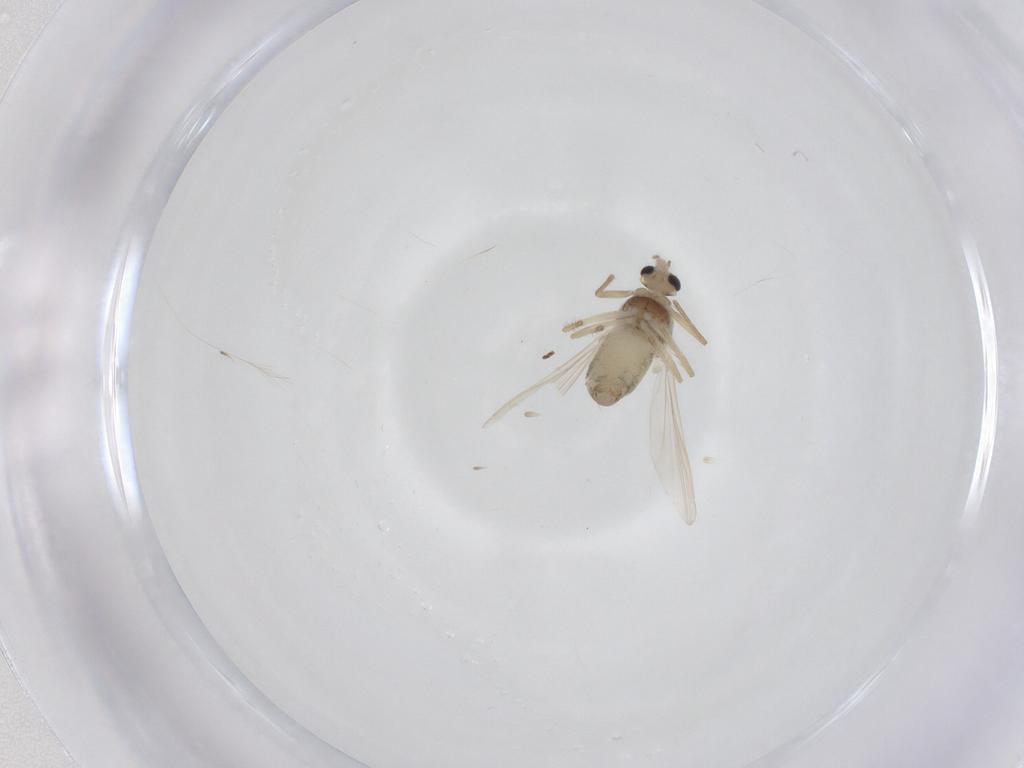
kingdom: Animalia
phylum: Arthropoda
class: Insecta
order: Diptera
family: Chironomidae
